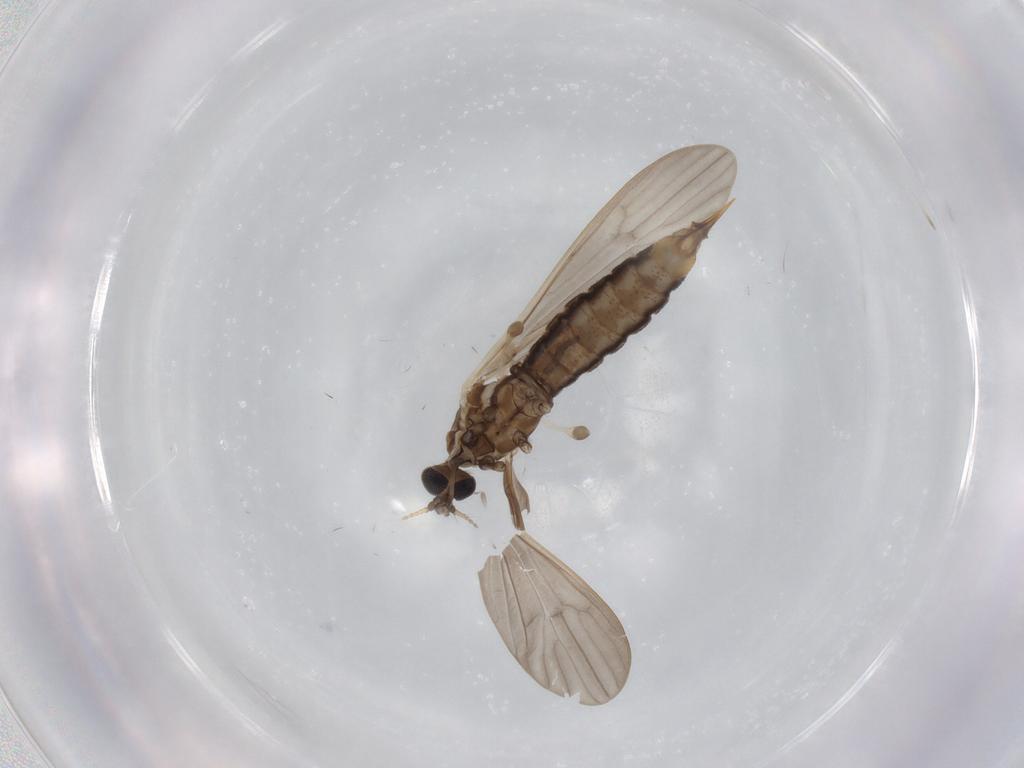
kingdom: Animalia
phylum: Arthropoda
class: Insecta
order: Diptera
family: Limoniidae
